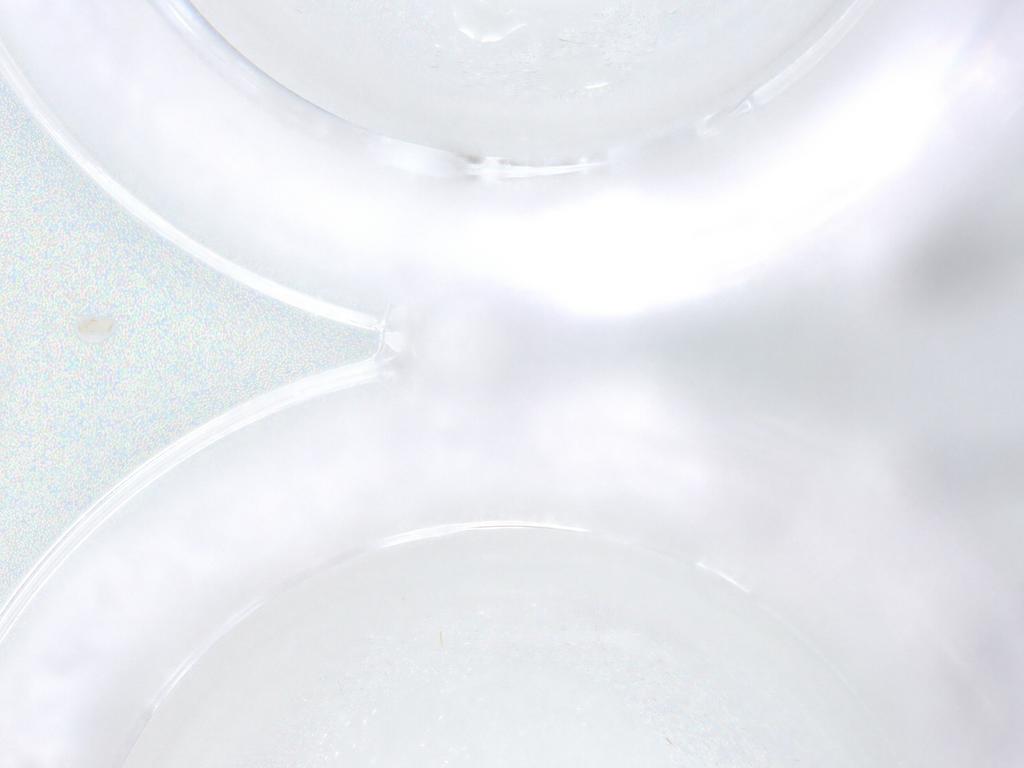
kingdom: Animalia
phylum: Arthropoda
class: Insecta
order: Diptera
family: Ceratopogonidae
